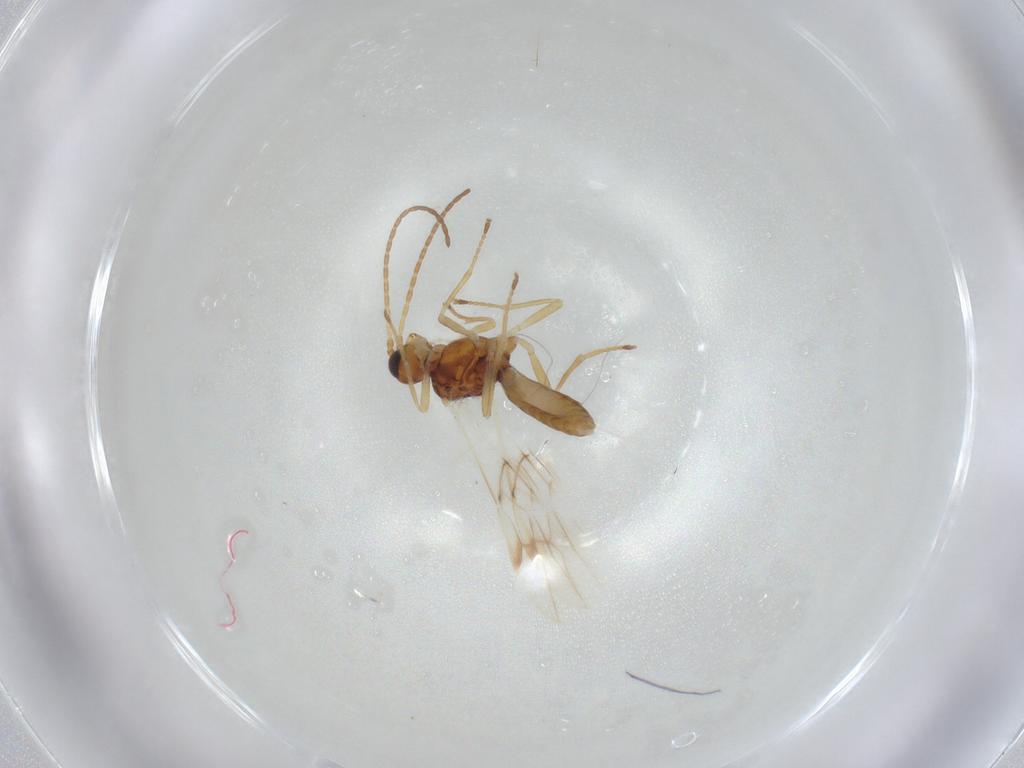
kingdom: Animalia
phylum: Arthropoda
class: Insecta
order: Hymenoptera
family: Braconidae
